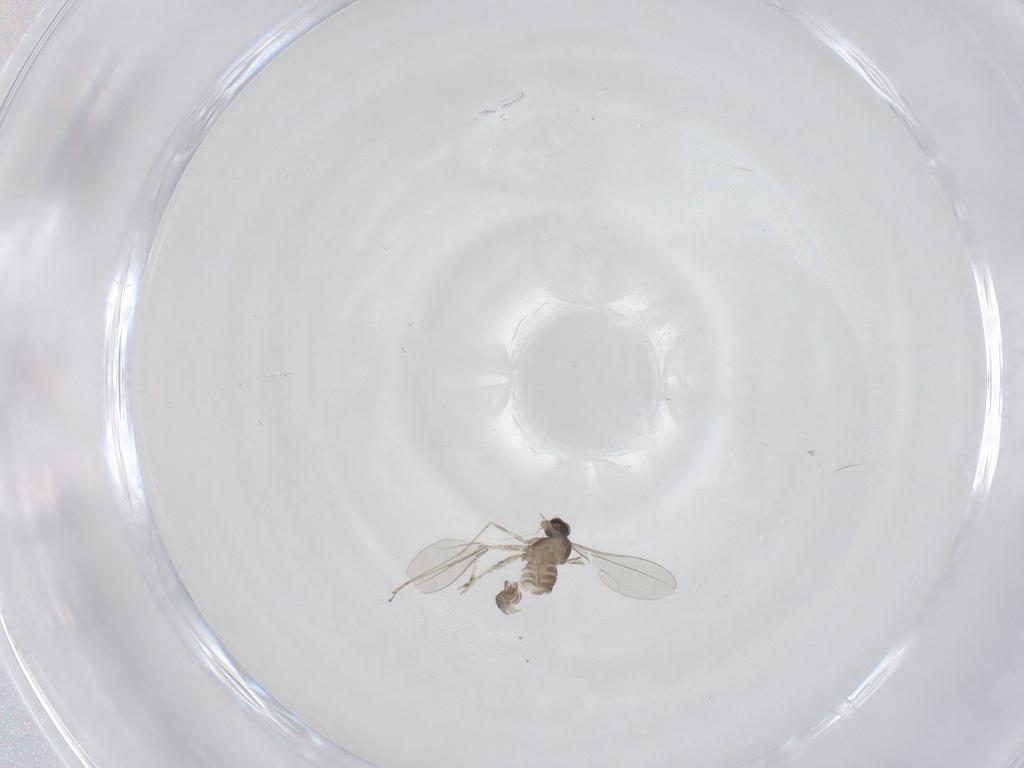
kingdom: Animalia
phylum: Arthropoda
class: Insecta
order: Diptera
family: Cecidomyiidae
